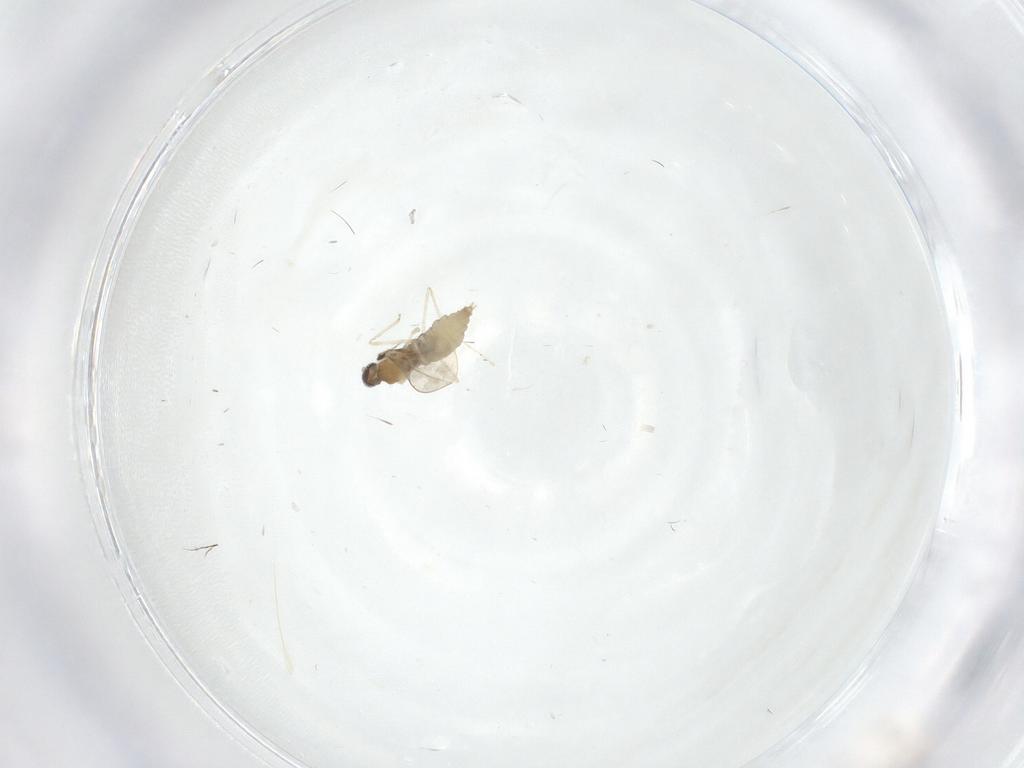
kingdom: Animalia
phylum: Arthropoda
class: Insecta
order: Diptera
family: Cecidomyiidae
